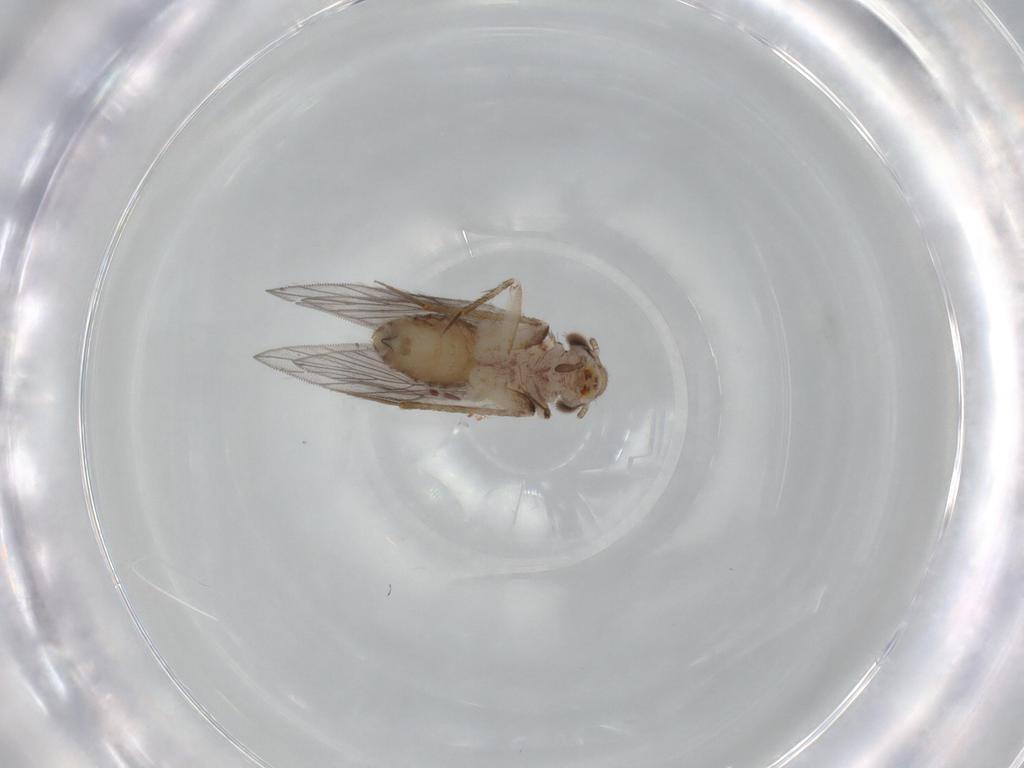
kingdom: Animalia
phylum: Arthropoda
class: Insecta
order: Psocodea
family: Lepidopsocidae
